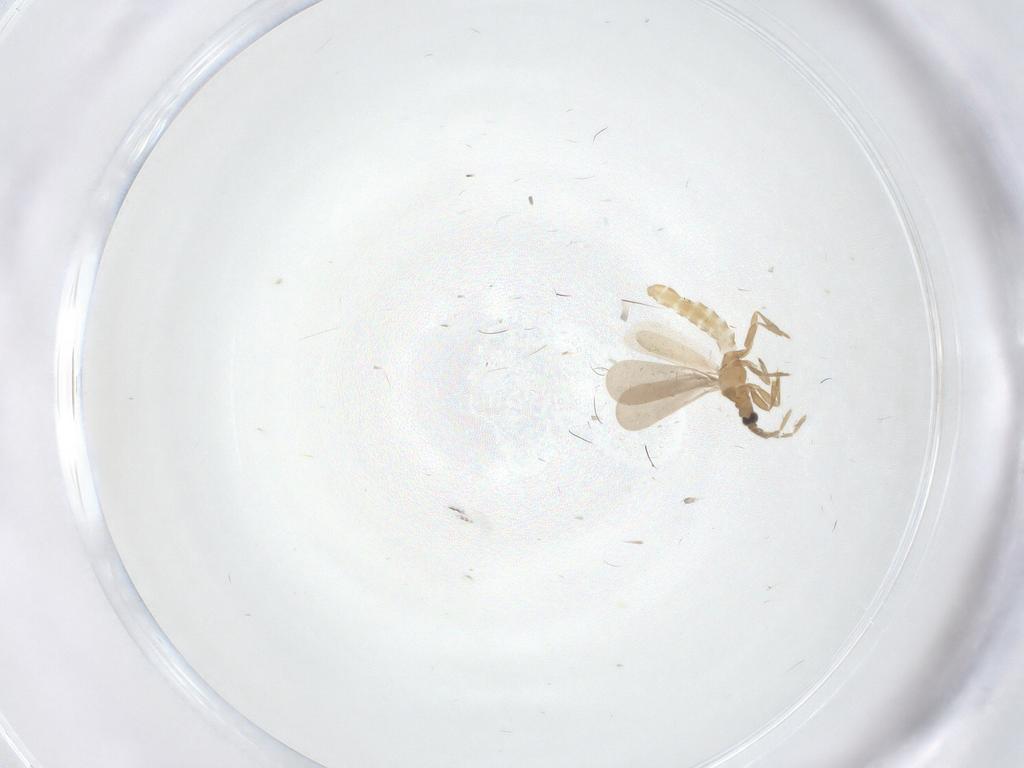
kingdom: Animalia
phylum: Arthropoda
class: Insecta
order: Hemiptera
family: Enicocephalidae
